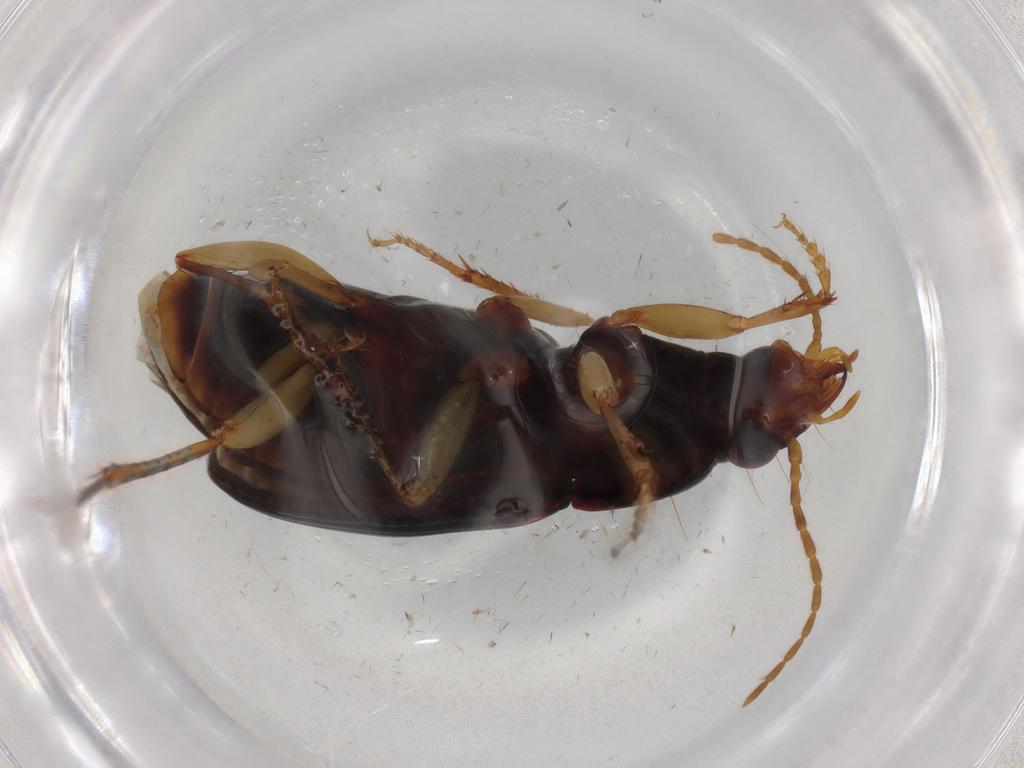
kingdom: Animalia
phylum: Arthropoda
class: Insecta
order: Coleoptera
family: Carabidae
